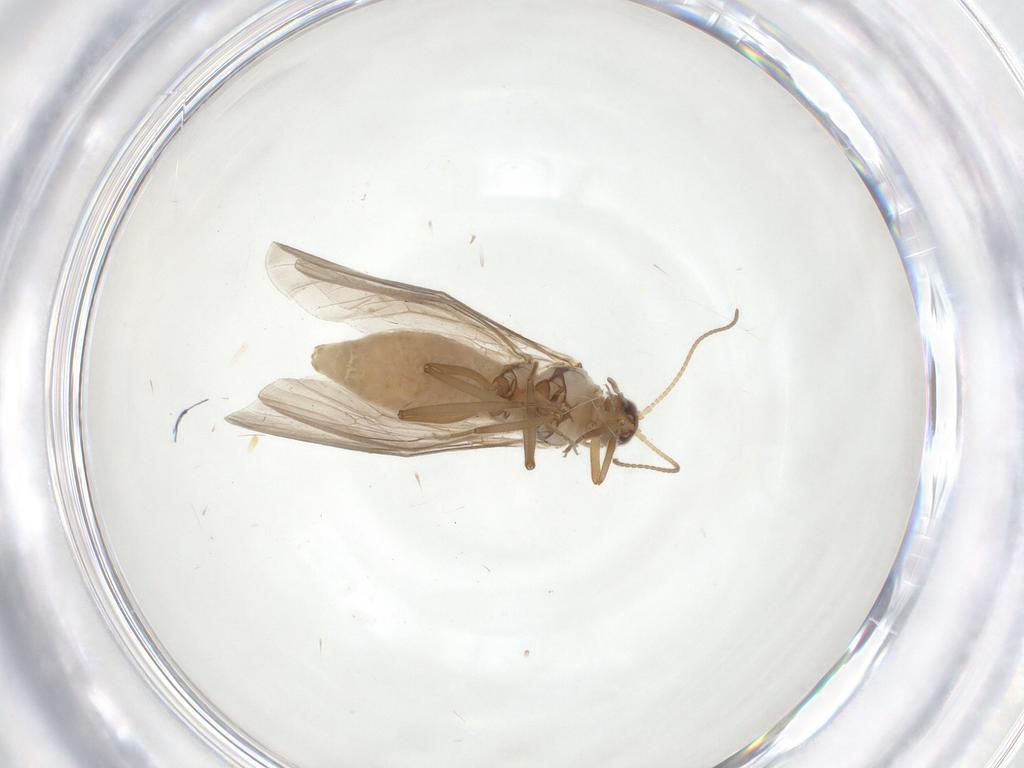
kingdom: Animalia
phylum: Arthropoda
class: Insecta
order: Neuroptera
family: Coniopterygidae
